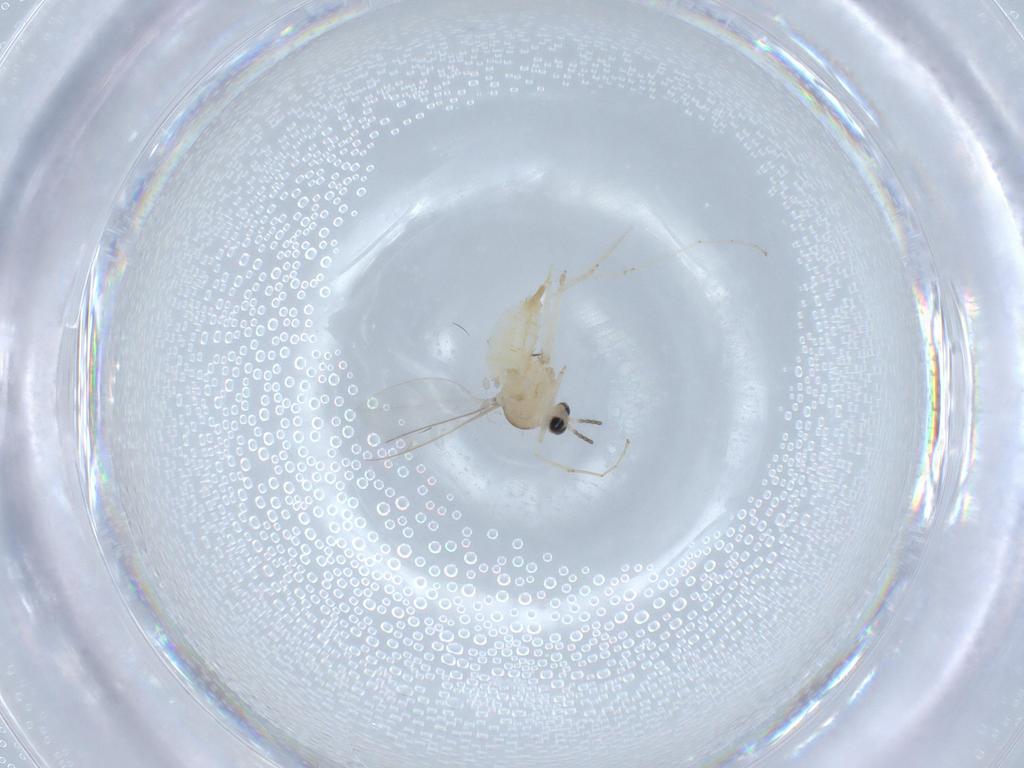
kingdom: Animalia
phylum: Arthropoda
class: Insecta
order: Diptera
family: Cecidomyiidae
